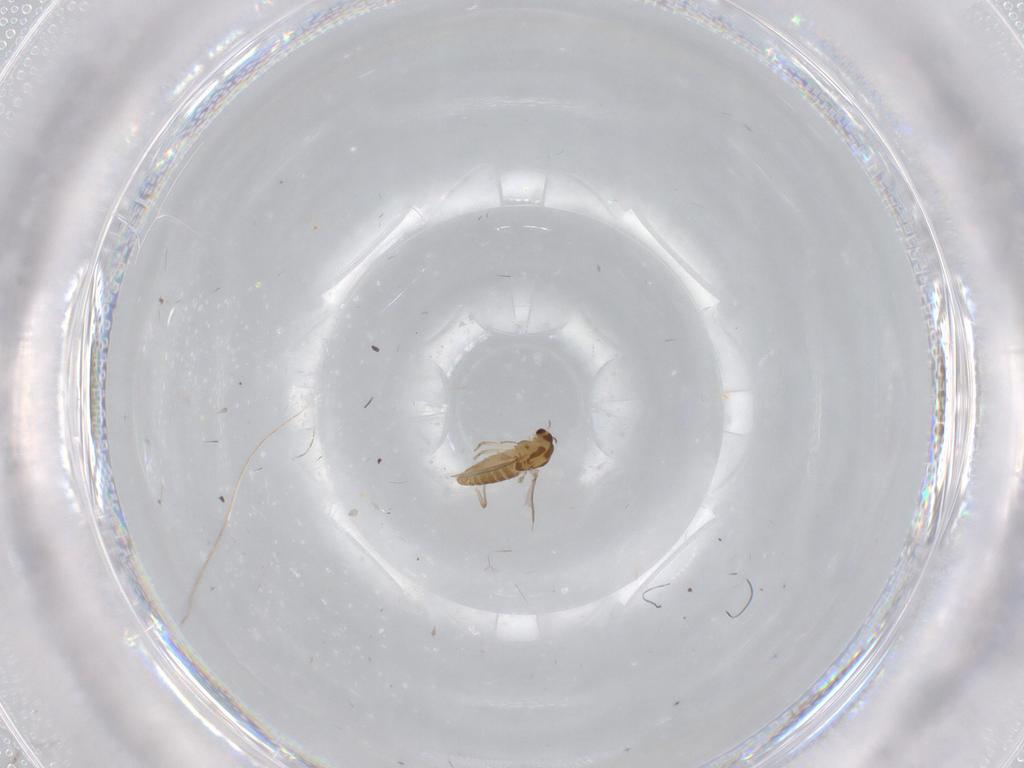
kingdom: Animalia
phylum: Arthropoda
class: Insecta
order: Diptera
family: Chironomidae
